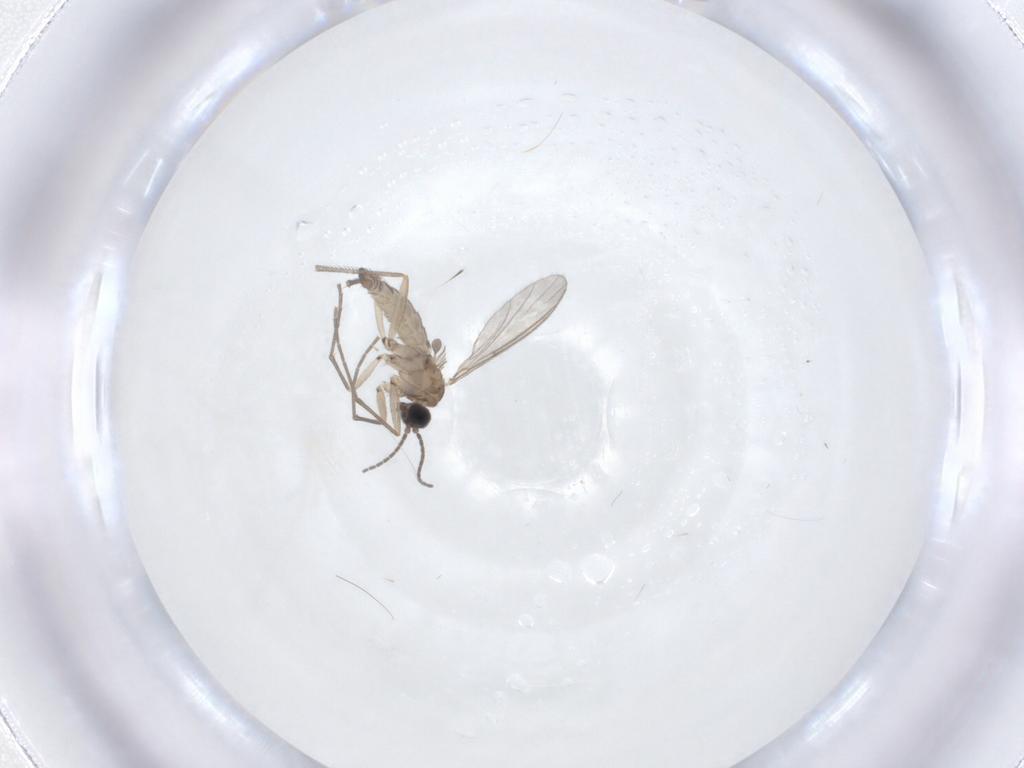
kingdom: Animalia
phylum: Arthropoda
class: Insecta
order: Diptera
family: Sciaridae
